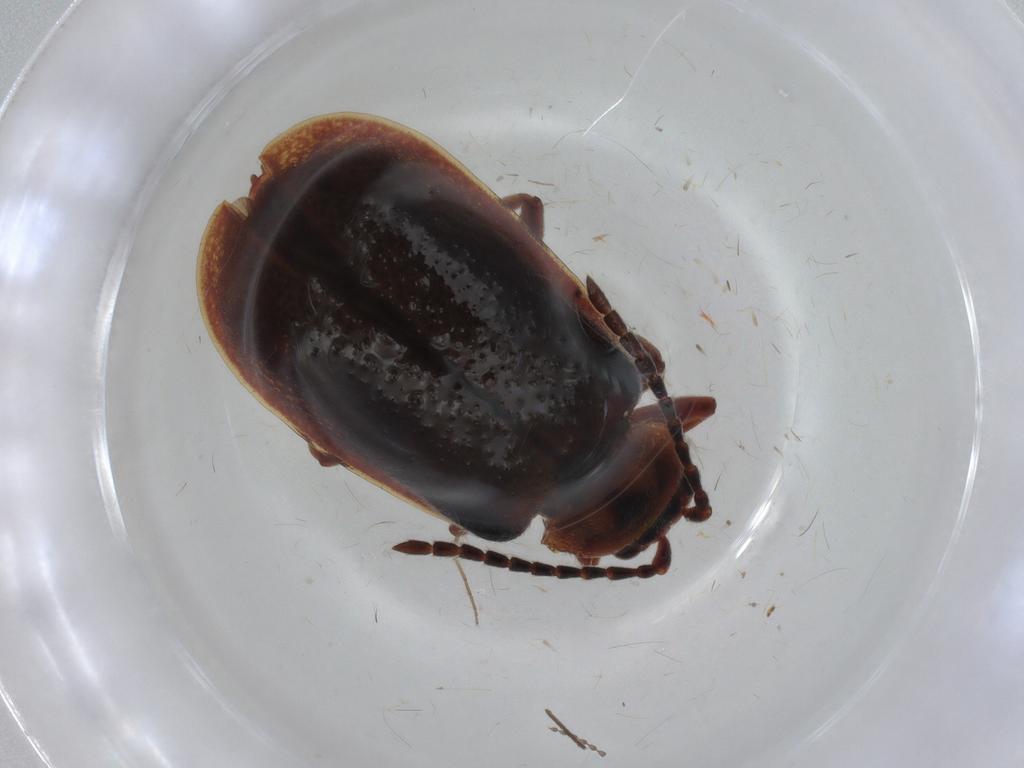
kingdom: Animalia
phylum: Arthropoda
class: Insecta
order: Coleoptera
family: Chrysomelidae
